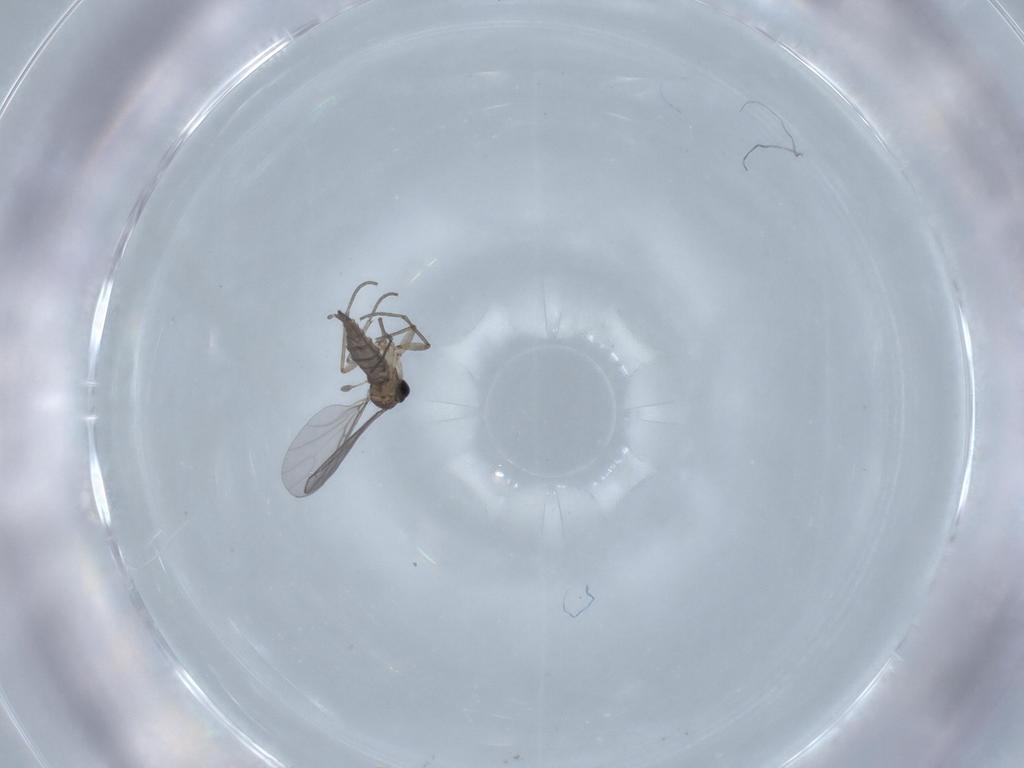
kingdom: Animalia
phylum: Arthropoda
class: Insecta
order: Diptera
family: Sciaridae
